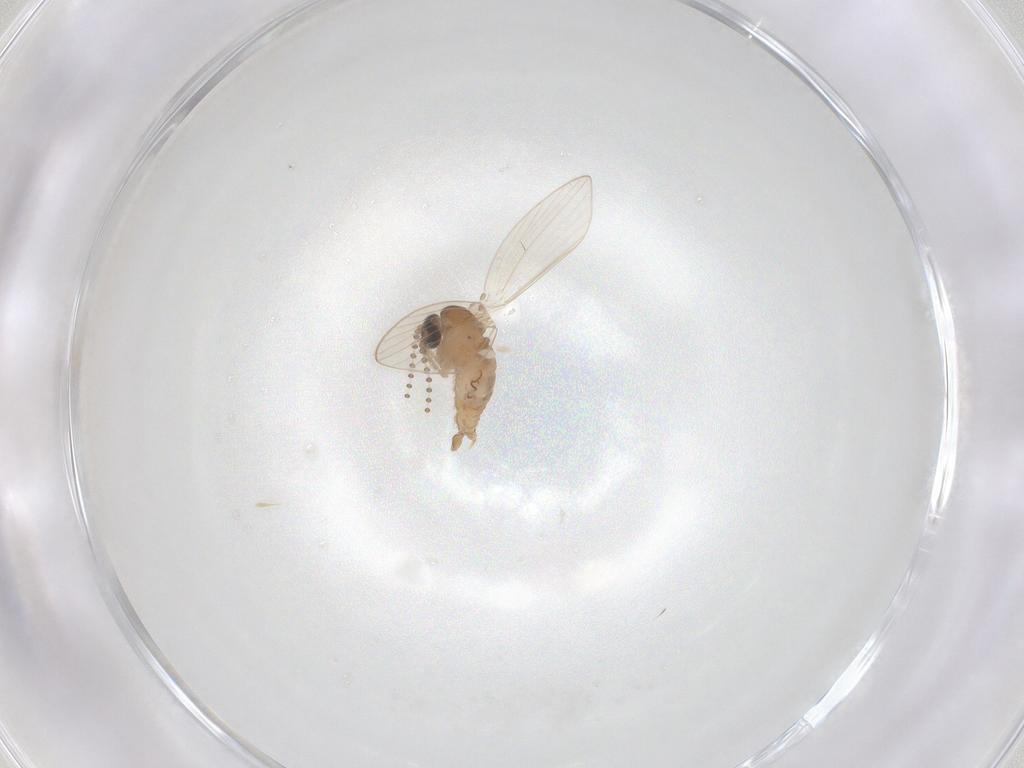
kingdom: Animalia
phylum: Arthropoda
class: Insecta
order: Diptera
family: Psychodidae
